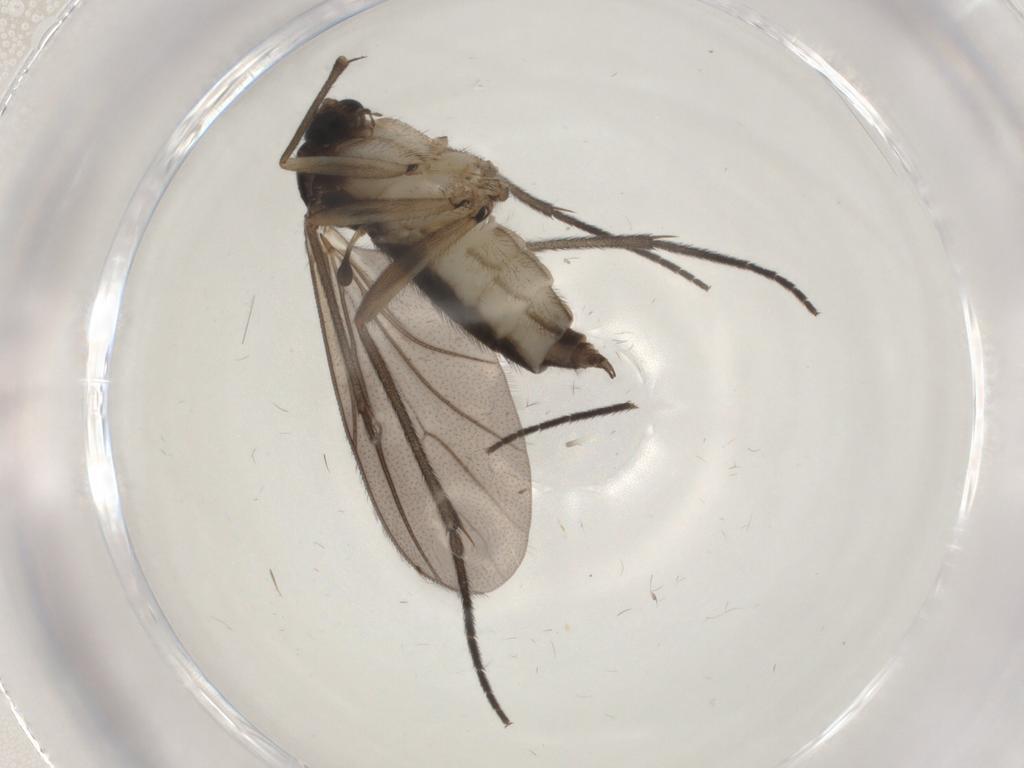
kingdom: Animalia
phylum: Arthropoda
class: Insecta
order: Diptera
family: Sciaridae
